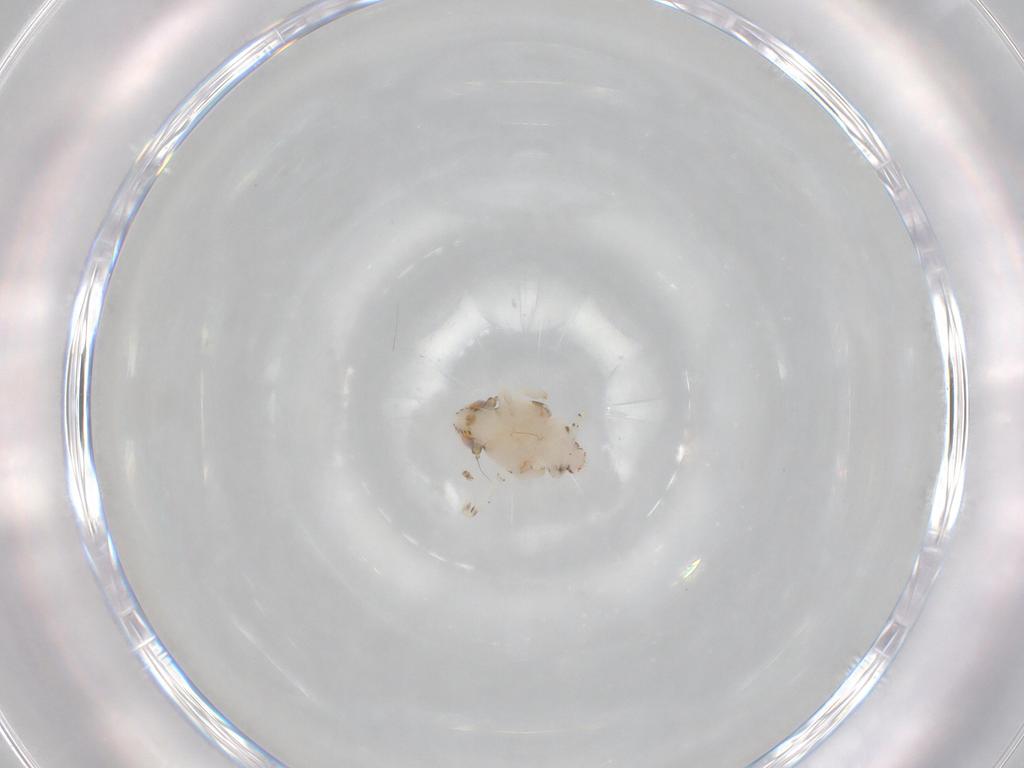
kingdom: Animalia
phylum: Arthropoda
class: Insecta
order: Hemiptera
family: Nogodinidae
